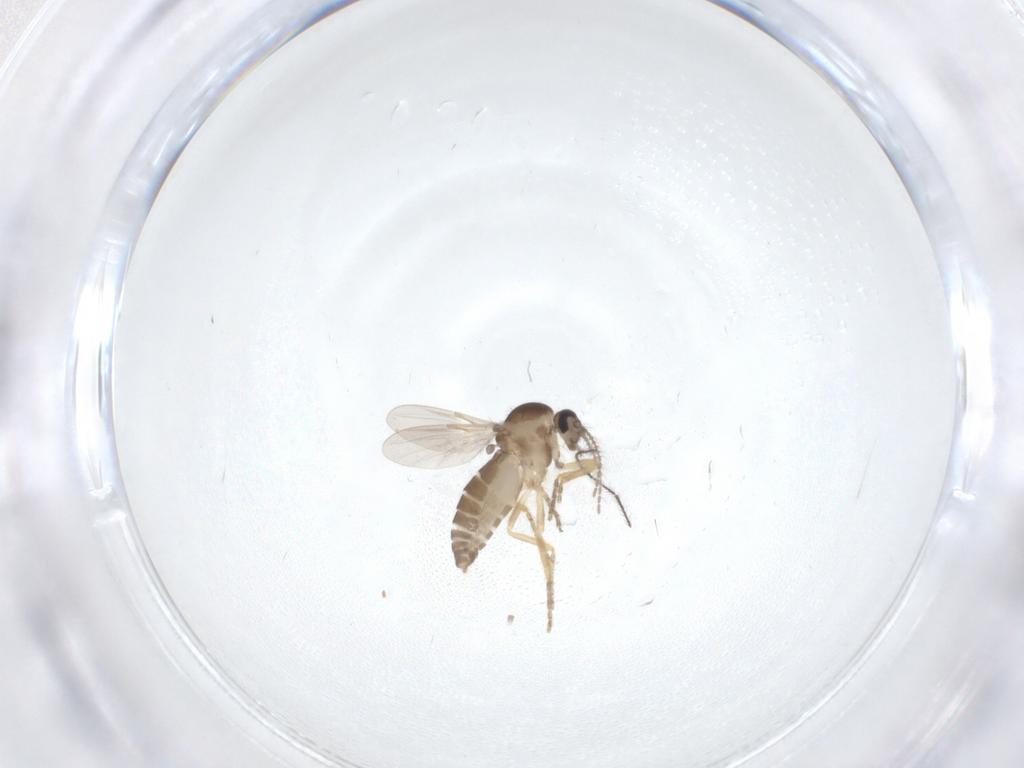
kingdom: Animalia
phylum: Arthropoda
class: Insecta
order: Diptera
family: Ceratopogonidae
